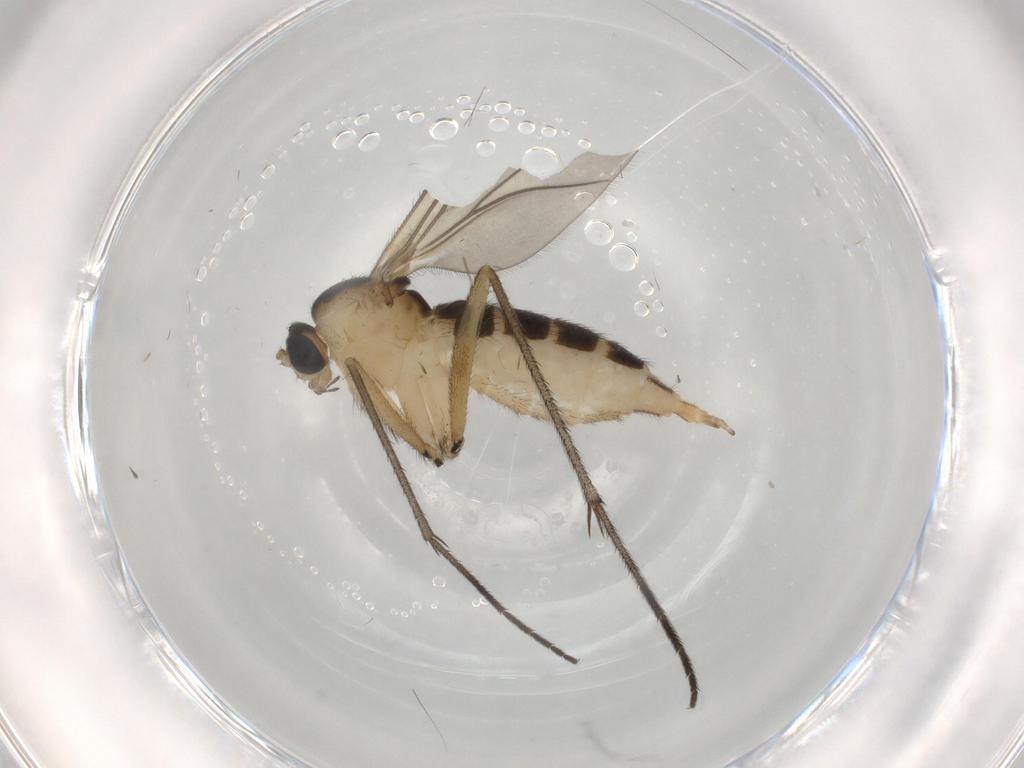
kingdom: Animalia
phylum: Arthropoda
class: Insecta
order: Diptera
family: Sciaridae
